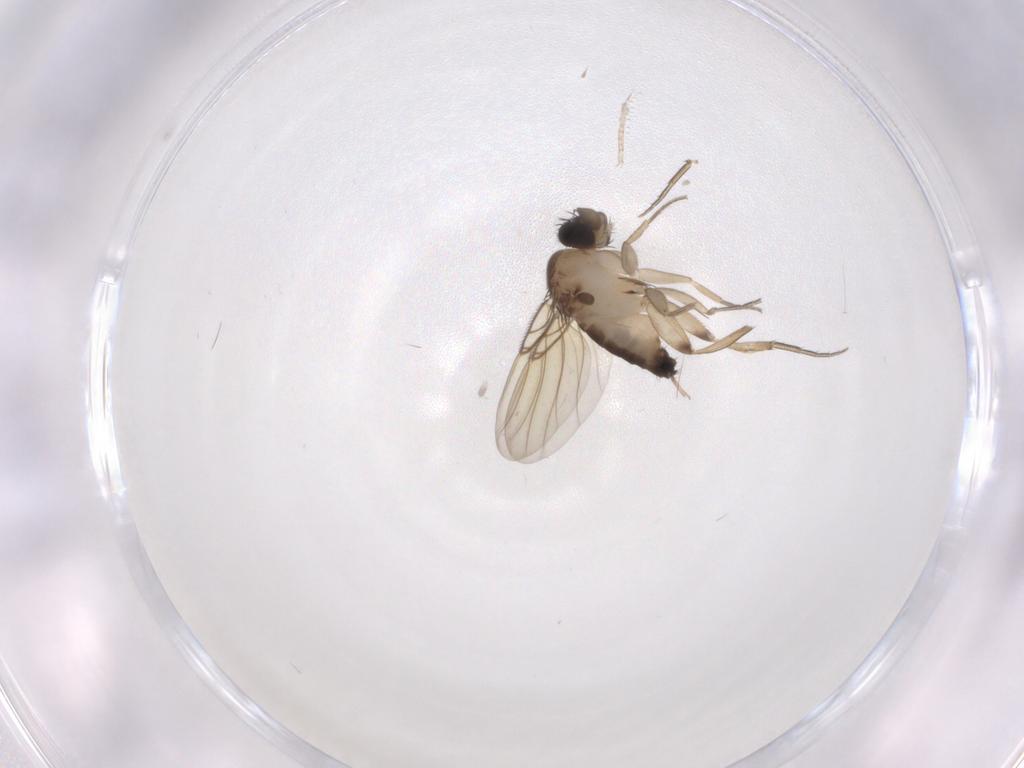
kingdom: Animalia
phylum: Arthropoda
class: Insecta
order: Diptera
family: Phoridae
